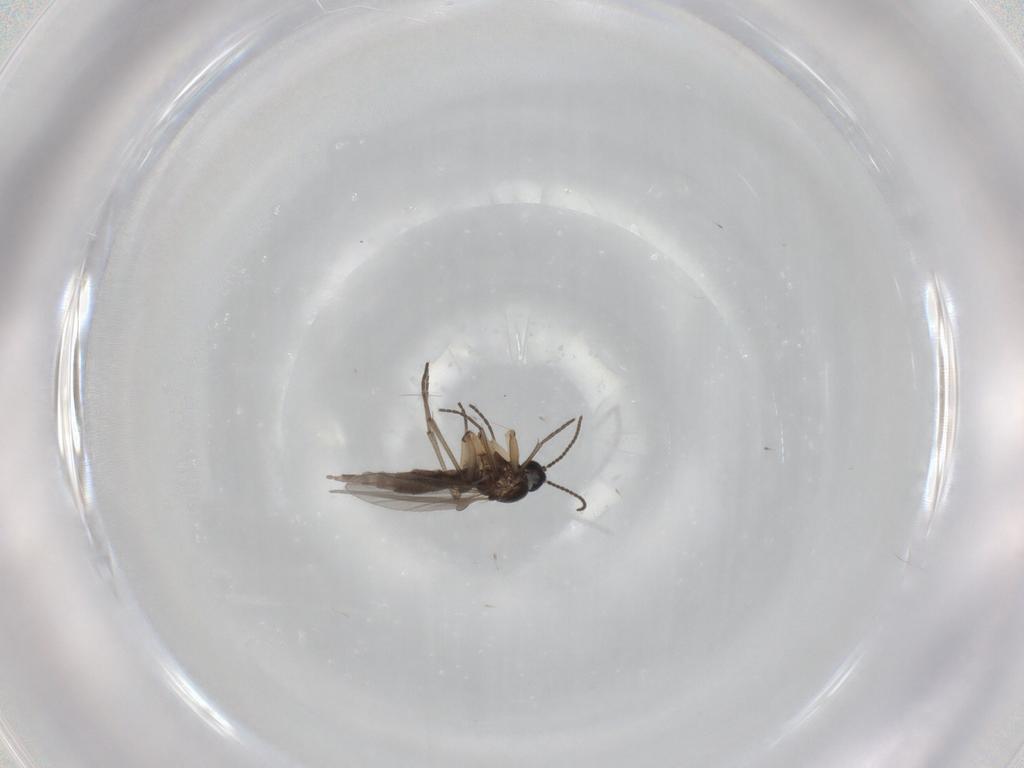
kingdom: Animalia
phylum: Arthropoda
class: Insecta
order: Diptera
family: Sciaridae
